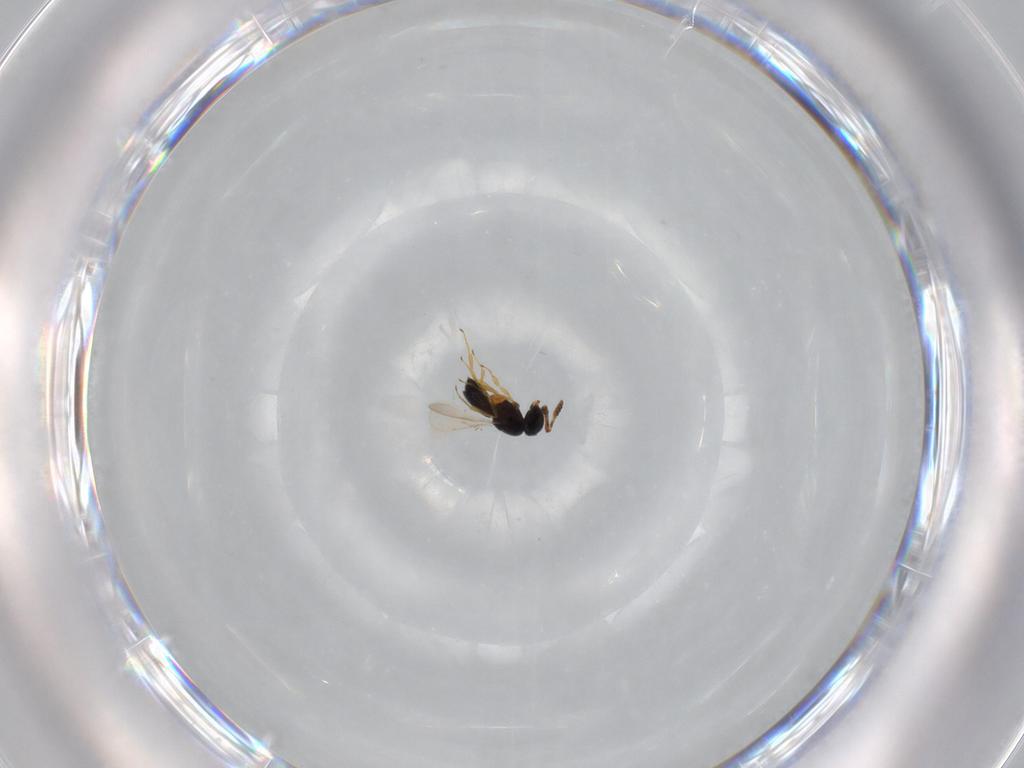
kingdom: Animalia
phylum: Arthropoda
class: Insecta
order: Hymenoptera
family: Scelionidae
